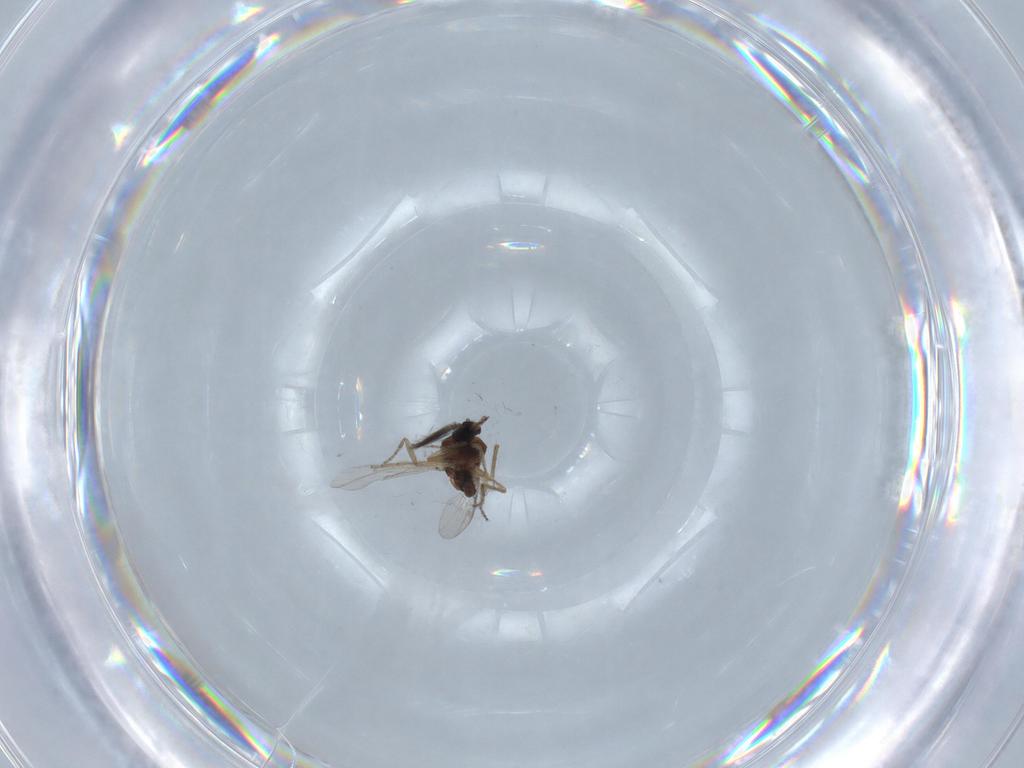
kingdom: Animalia
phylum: Arthropoda
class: Insecta
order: Diptera
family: Ceratopogonidae
